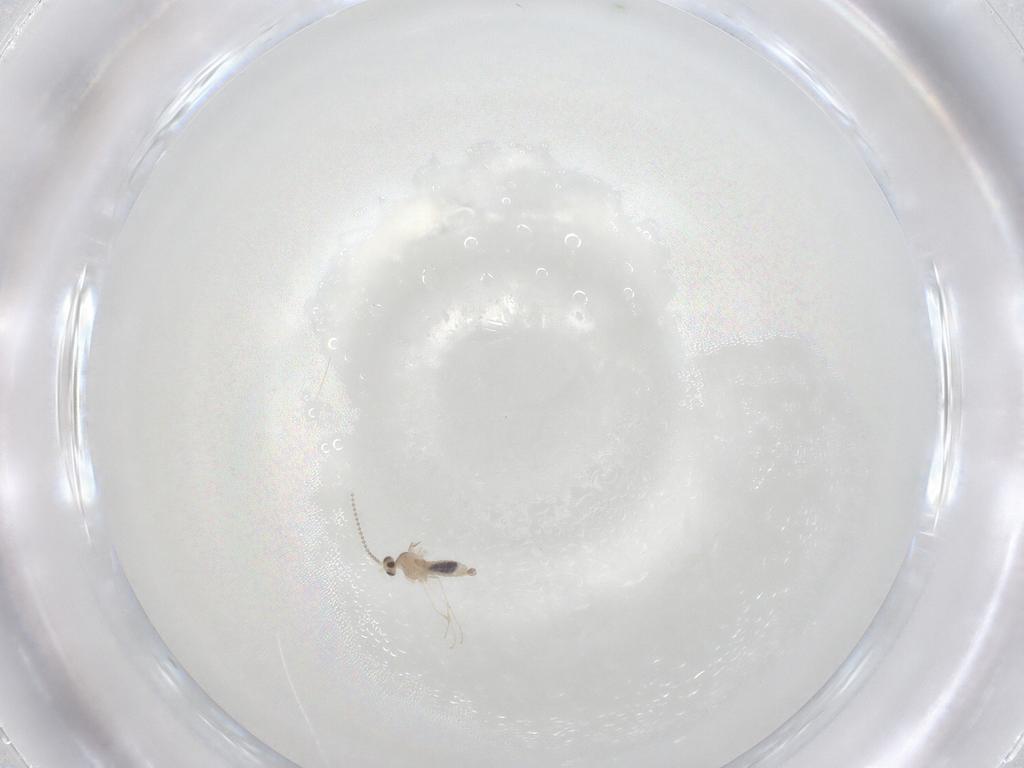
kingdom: Animalia
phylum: Arthropoda
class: Insecta
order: Diptera
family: Cecidomyiidae
